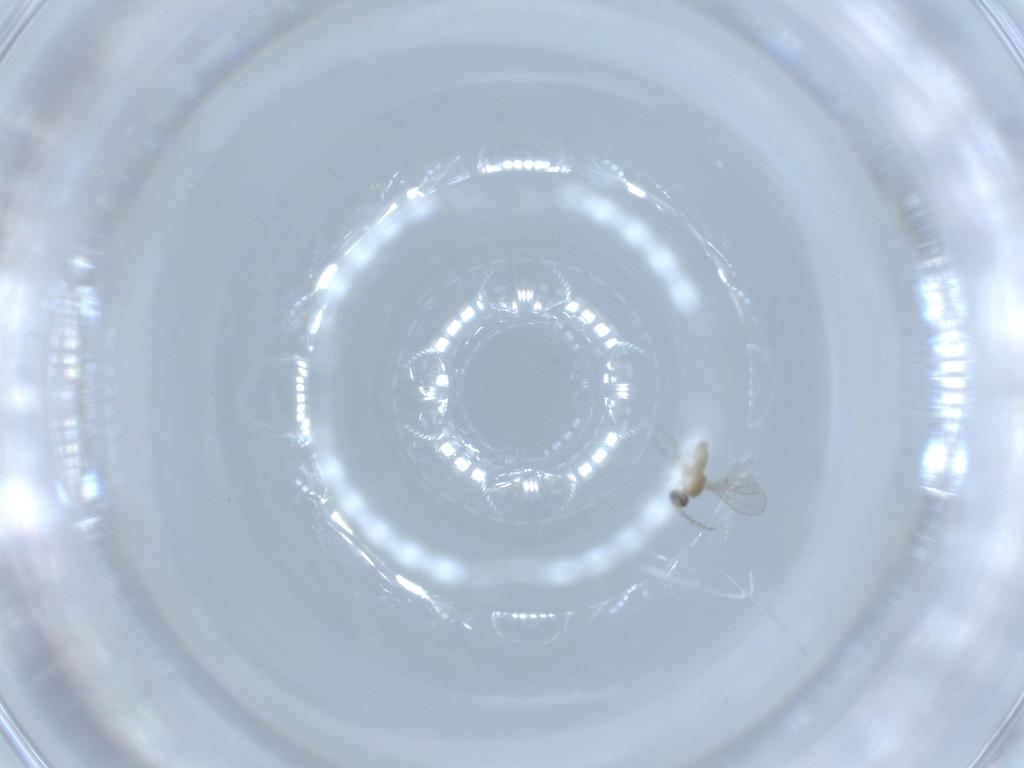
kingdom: Animalia
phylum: Arthropoda
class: Insecta
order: Diptera
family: Cecidomyiidae
